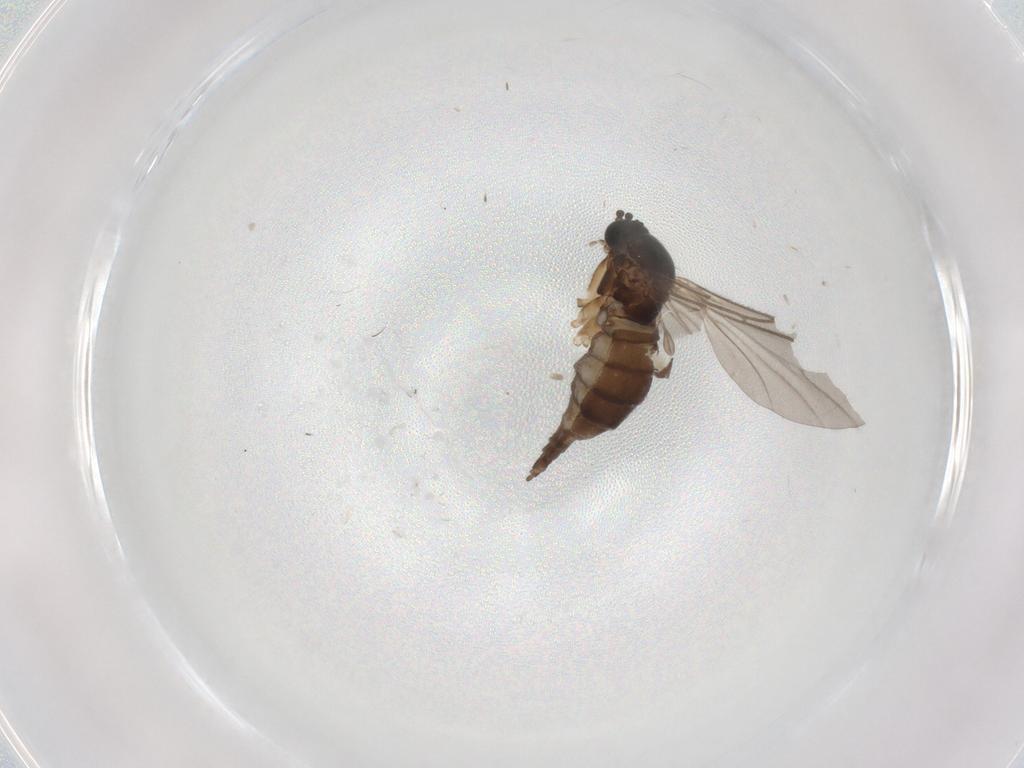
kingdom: Animalia
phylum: Arthropoda
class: Insecta
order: Diptera
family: Sciaridae
